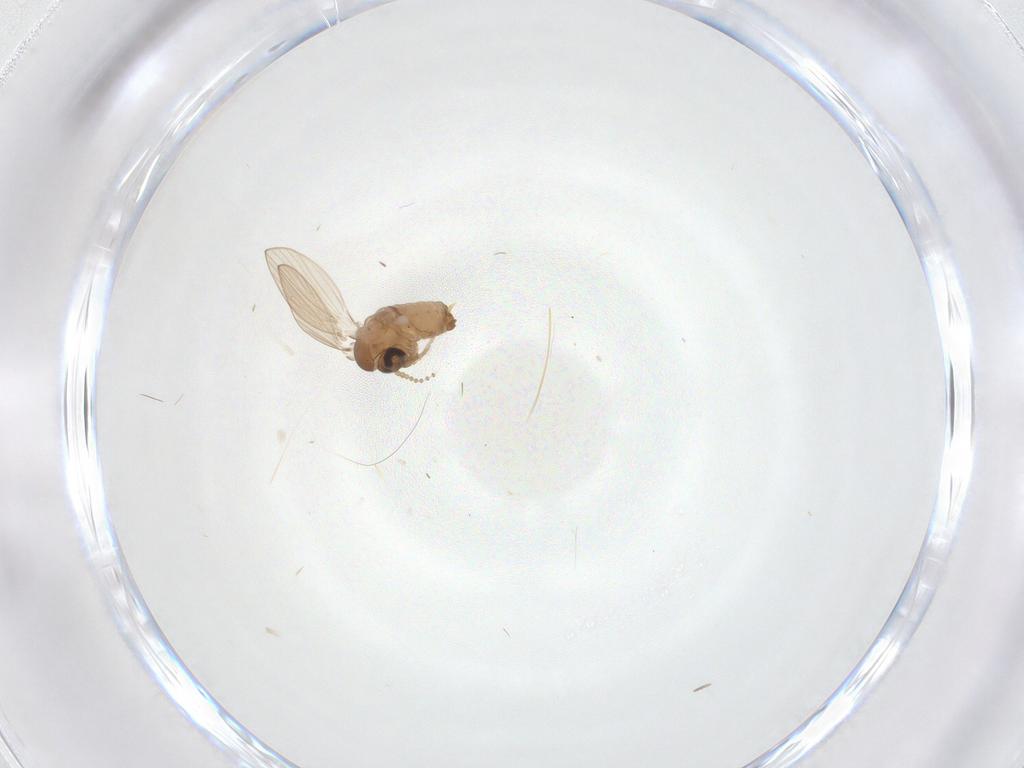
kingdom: Animalia
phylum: Arthropoda
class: Insecta
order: Diptera
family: Psychodidae
